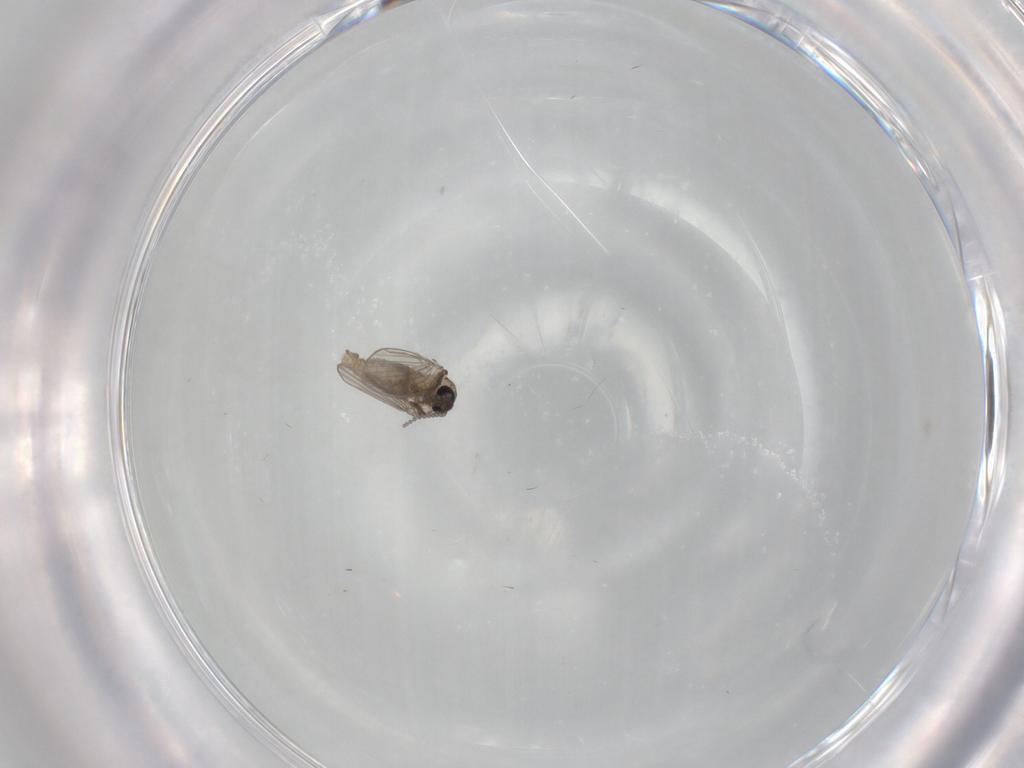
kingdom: Animalia
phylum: Arthropoda
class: Insecta
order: Diptera
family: Psychodidae
